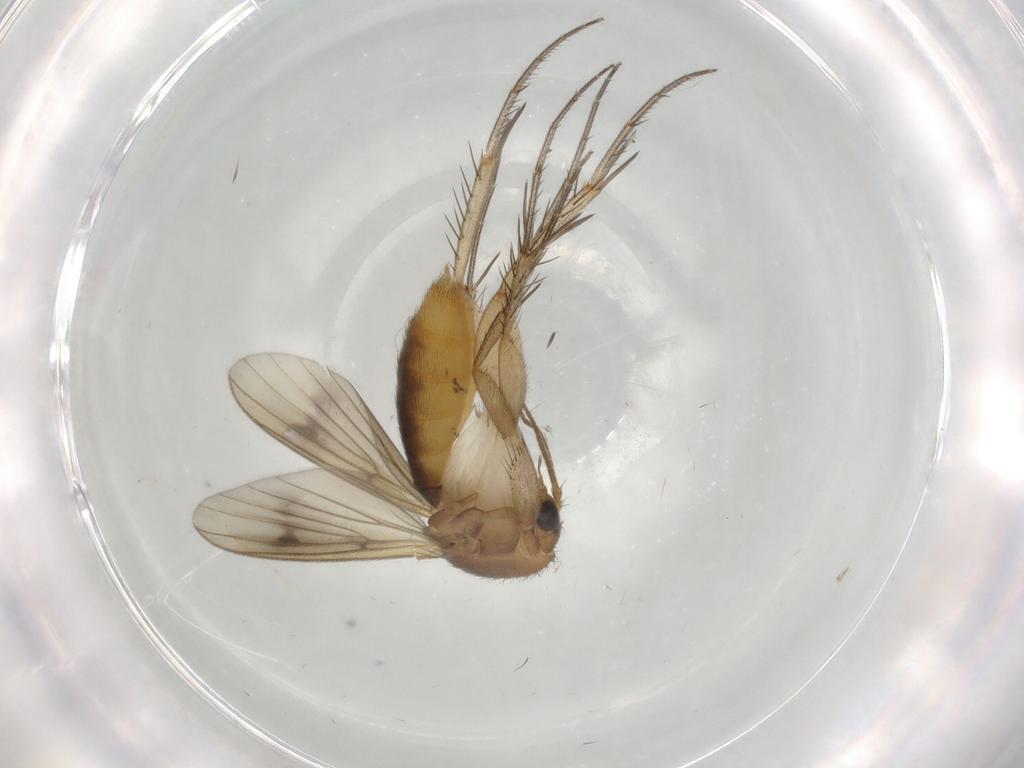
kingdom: Animalia
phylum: Arthropoda
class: Insecta
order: Diptera
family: Mycetophilidae
